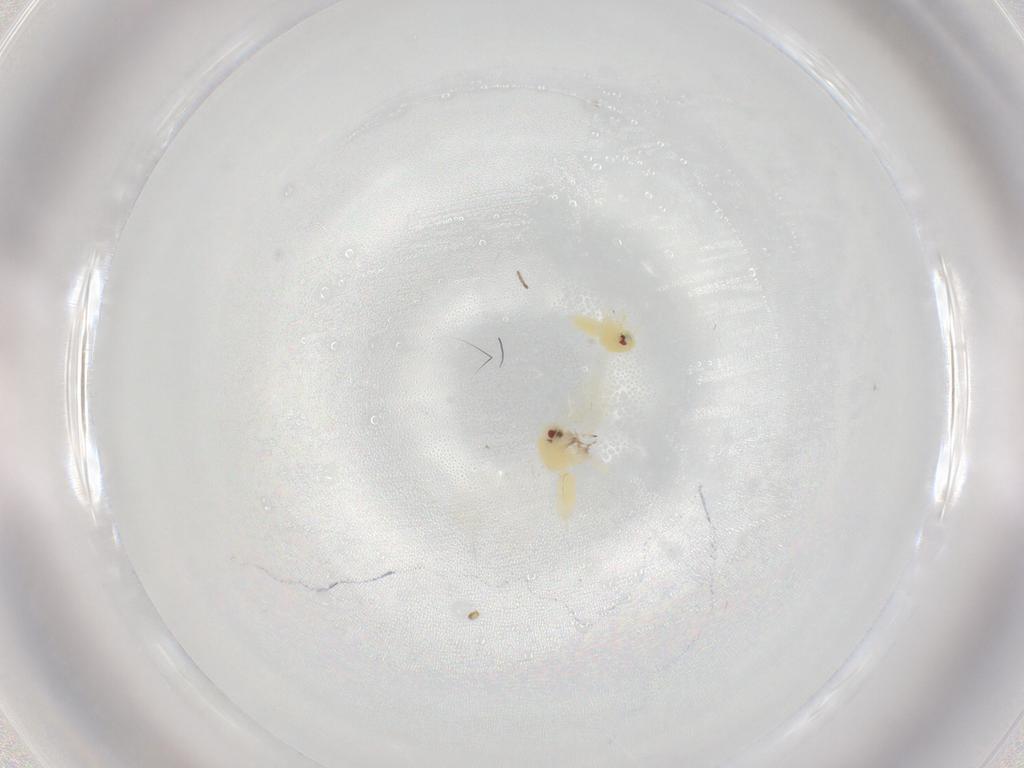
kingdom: Animalia
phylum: Arthropoda
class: Insecta
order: Hemiptera
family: Aleyrodidae
